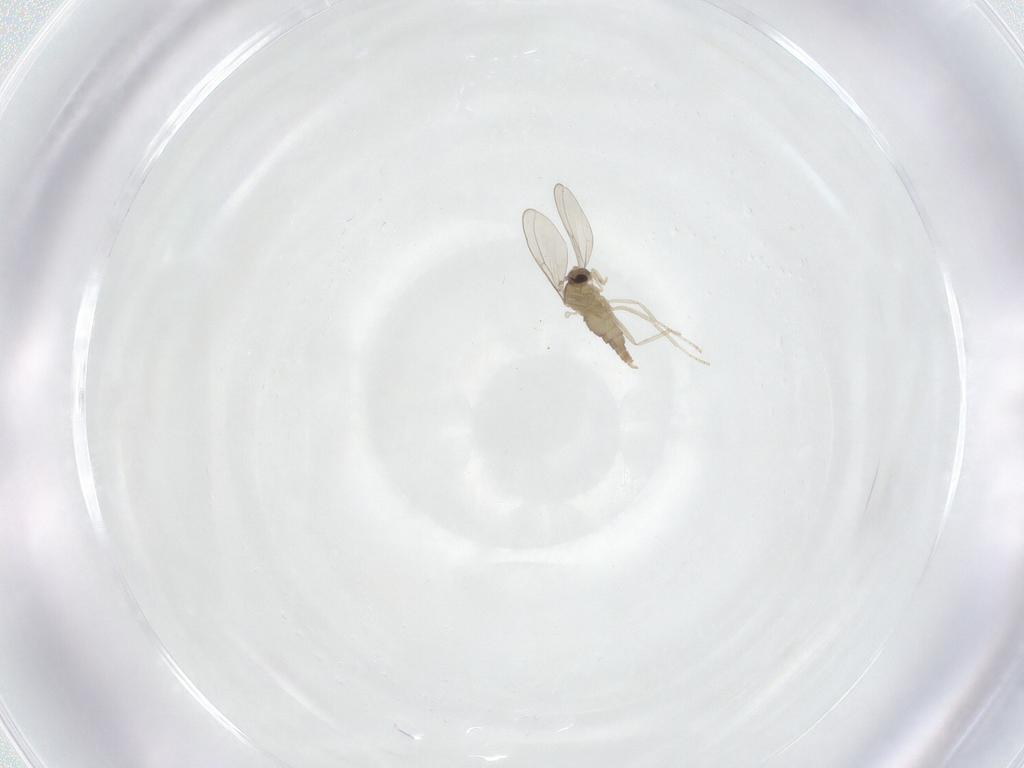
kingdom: Animalia
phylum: Arthropoda
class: Insecta
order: Diptera
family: Cecidomyiidae
